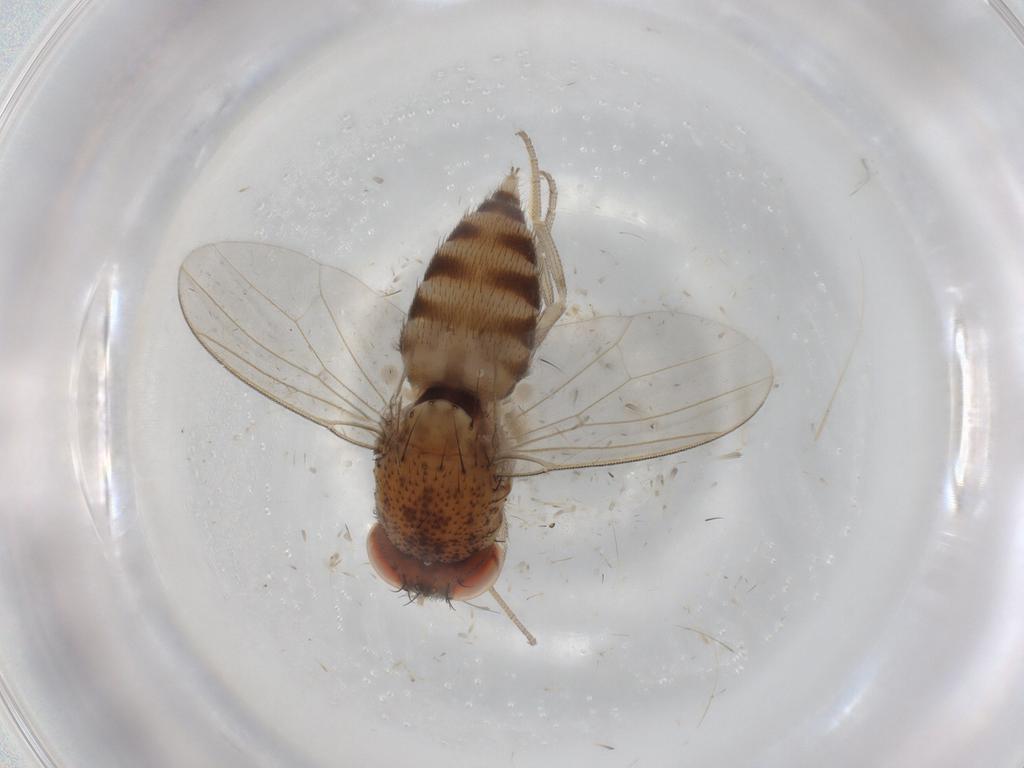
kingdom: Animalia
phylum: Arthropoda
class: Insecta
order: Diptera
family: Drosophilidae
